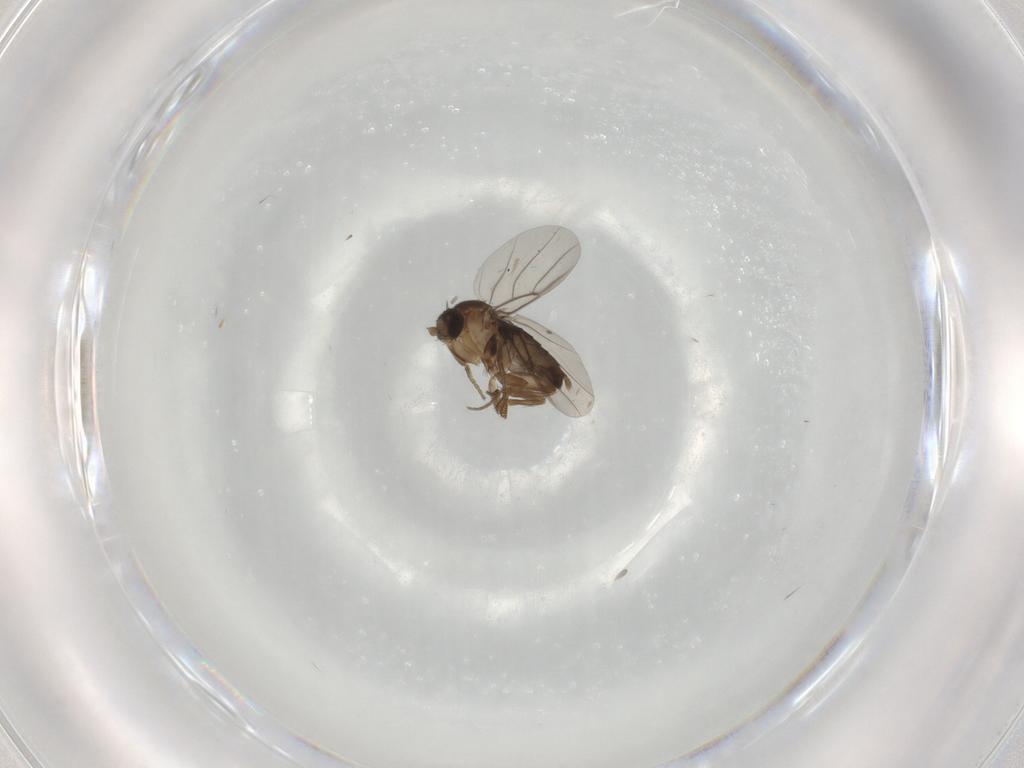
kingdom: Animalia
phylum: Arthropoda
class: Insecta
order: Diptera
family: Phoridae
